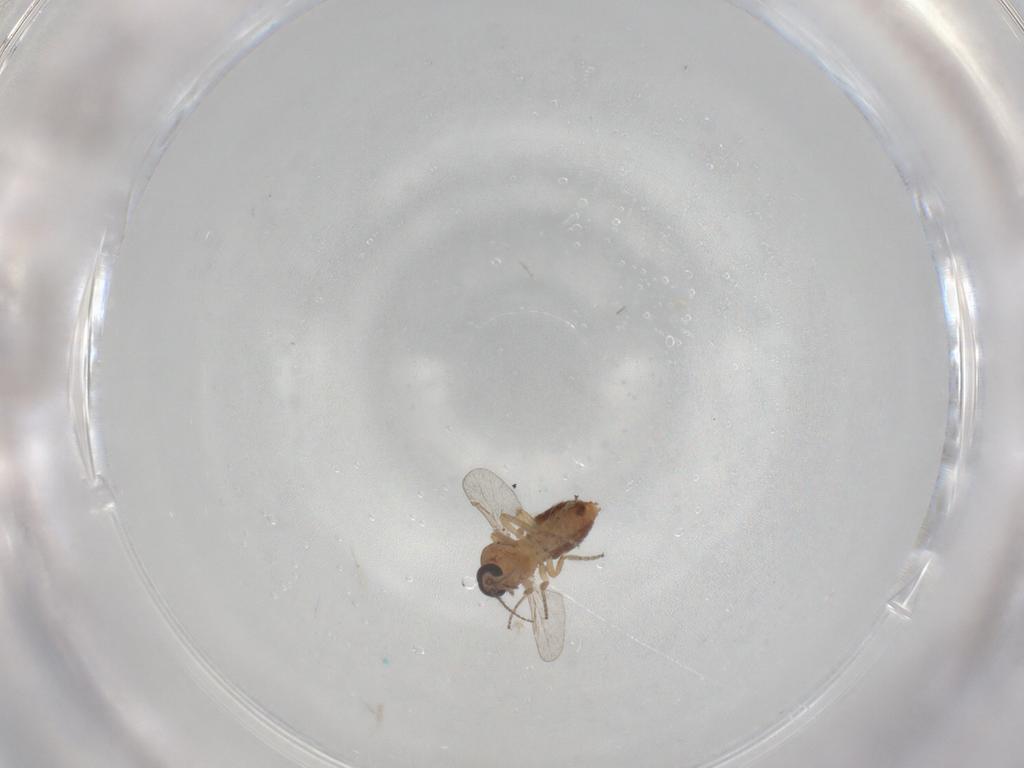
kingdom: Animalia
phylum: Arthropoda
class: Insecta
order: Diptera
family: Ceratopogonidae
